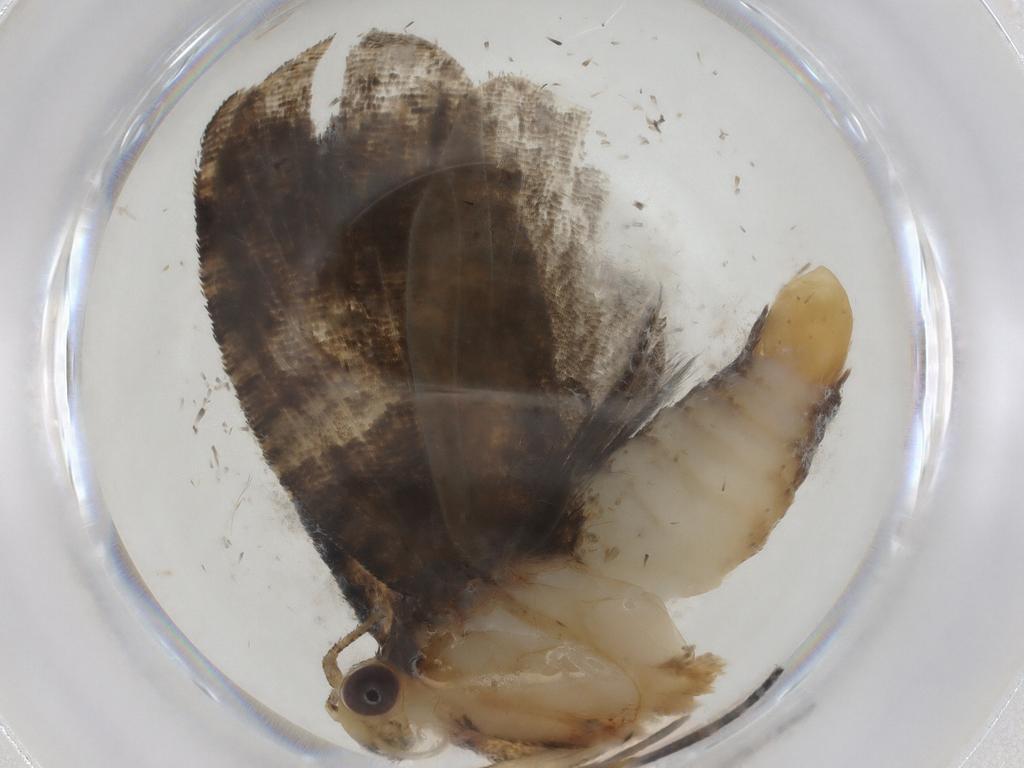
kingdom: Animalia
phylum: Arthropoda
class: Insecta
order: Lepidoptera
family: Tortricidae
